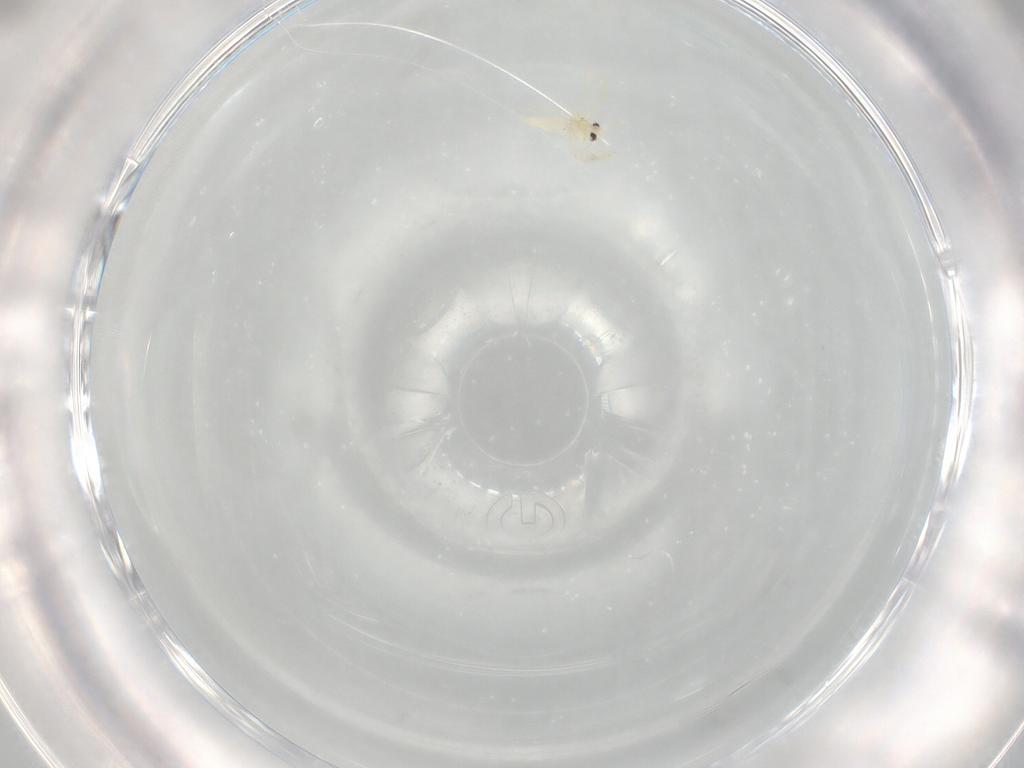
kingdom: Animalia
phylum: Arthropoda
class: Insecta
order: Hemiptera
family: Aleyrodidae
